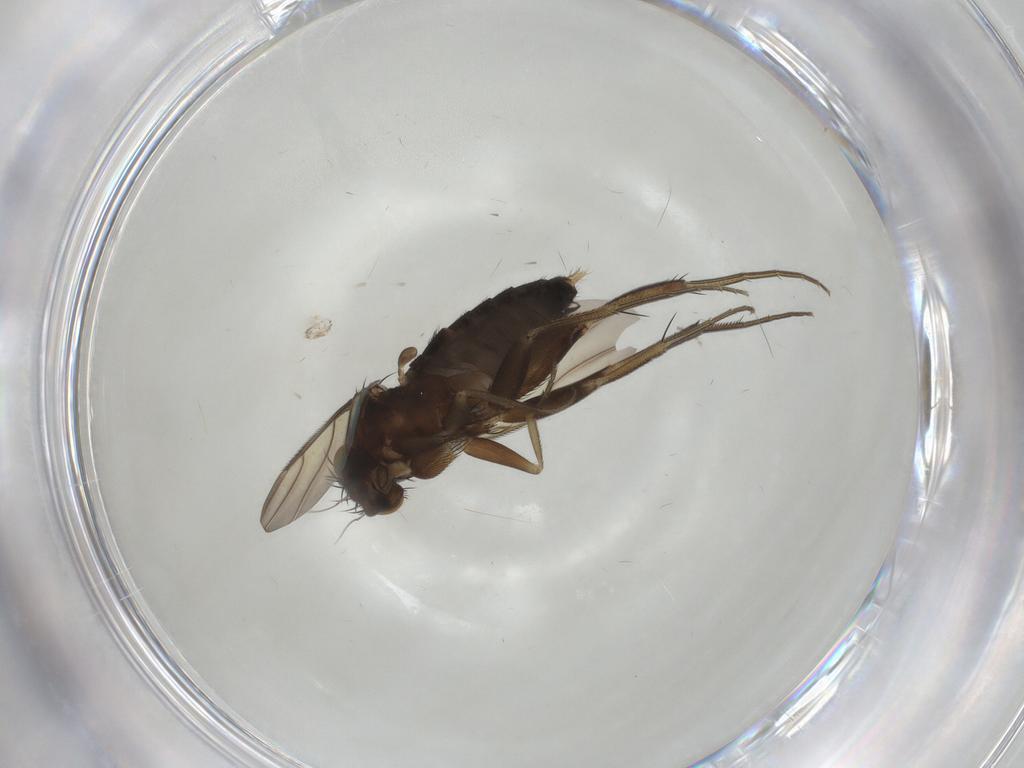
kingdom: Animalia
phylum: Arthropoda
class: Insecta
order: Diptera
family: Phoridae
